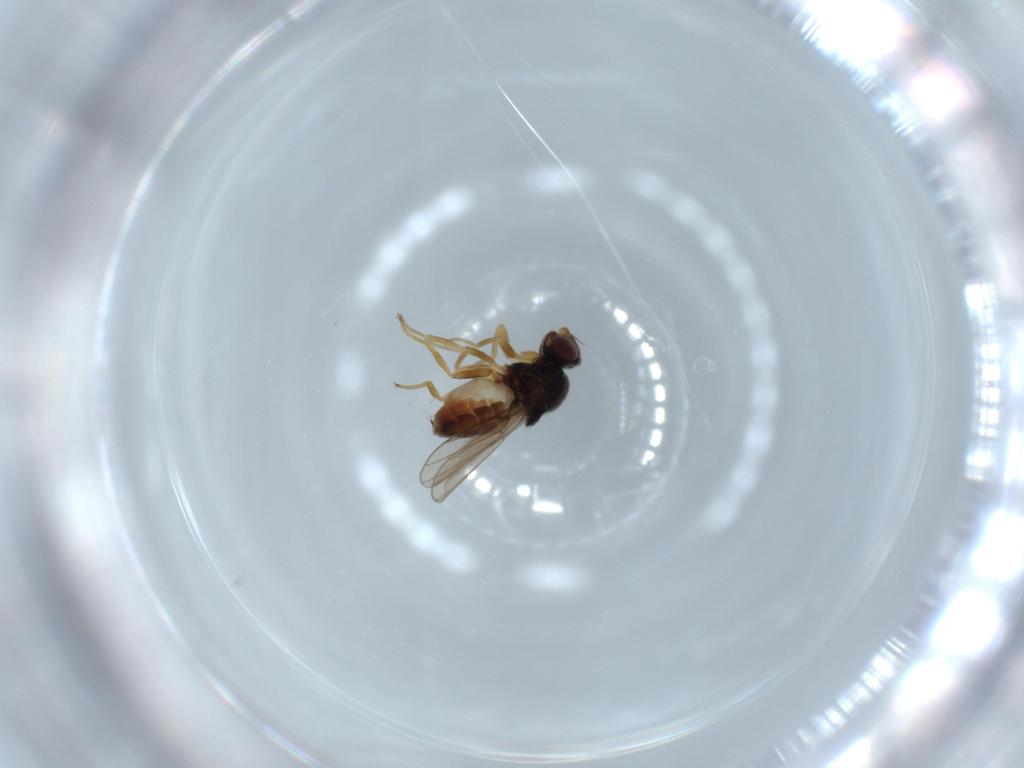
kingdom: Animalia
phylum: Arthropoda
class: Insecta
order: Diptera
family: Chloropidae
